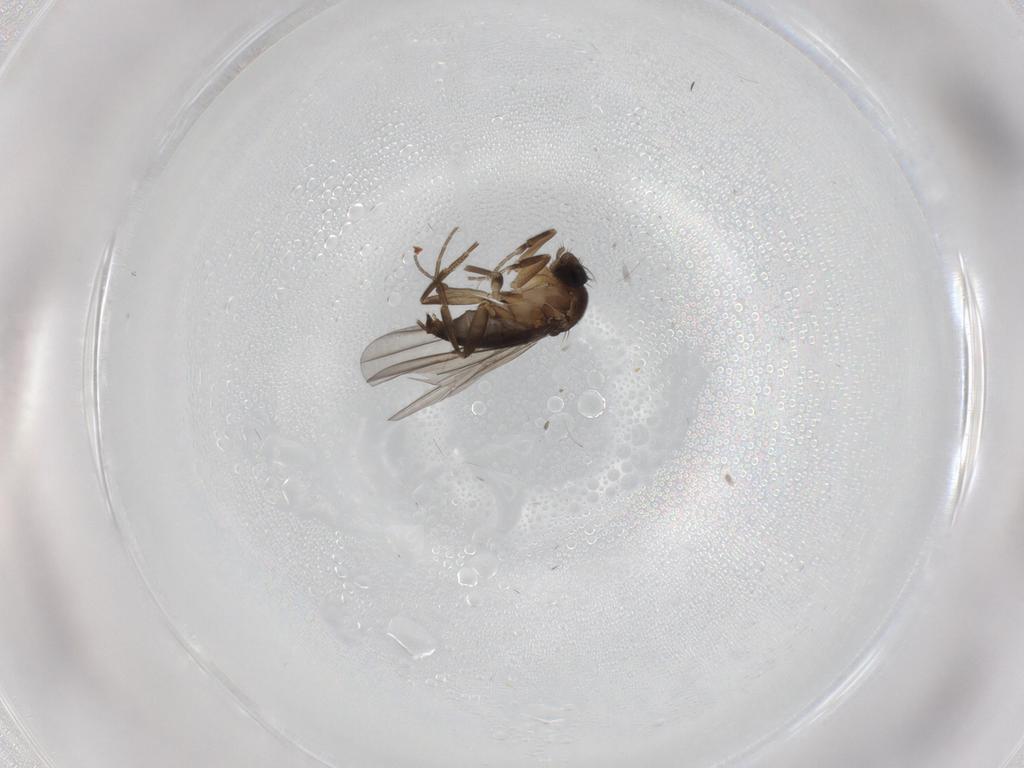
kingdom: Animalia
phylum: Arthropoda
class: Insecta
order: Diptera
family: Phoridae
